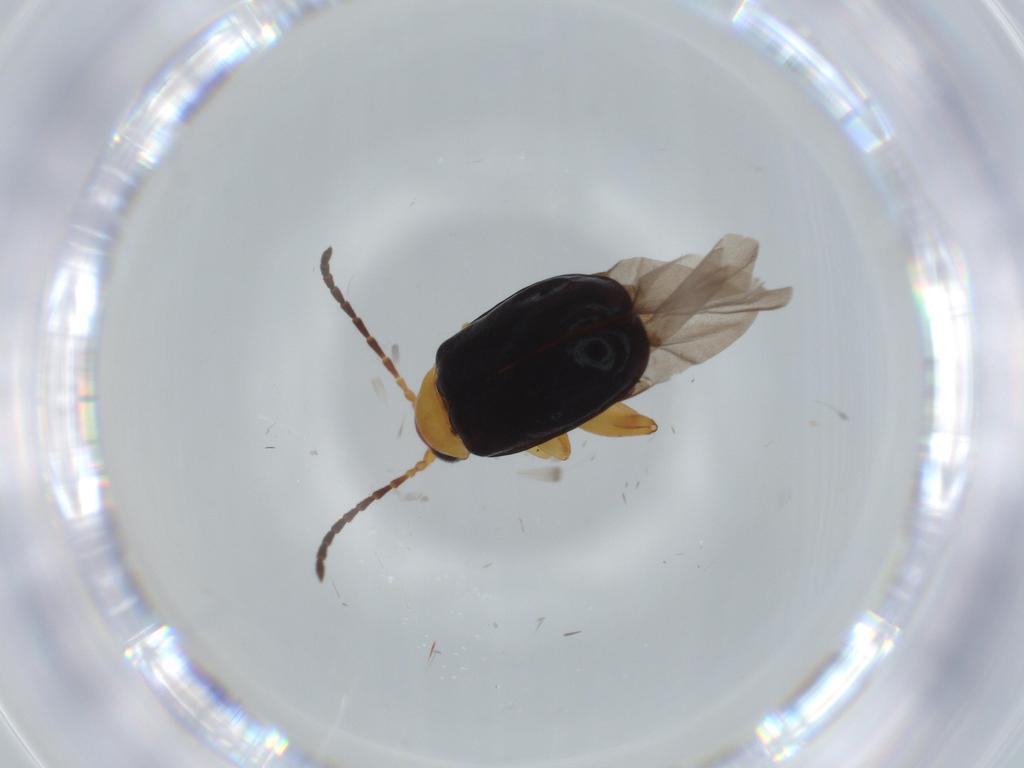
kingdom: Animalia
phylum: Arthropoda
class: Insecta
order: Coleoptera
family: Chrysomelidae
